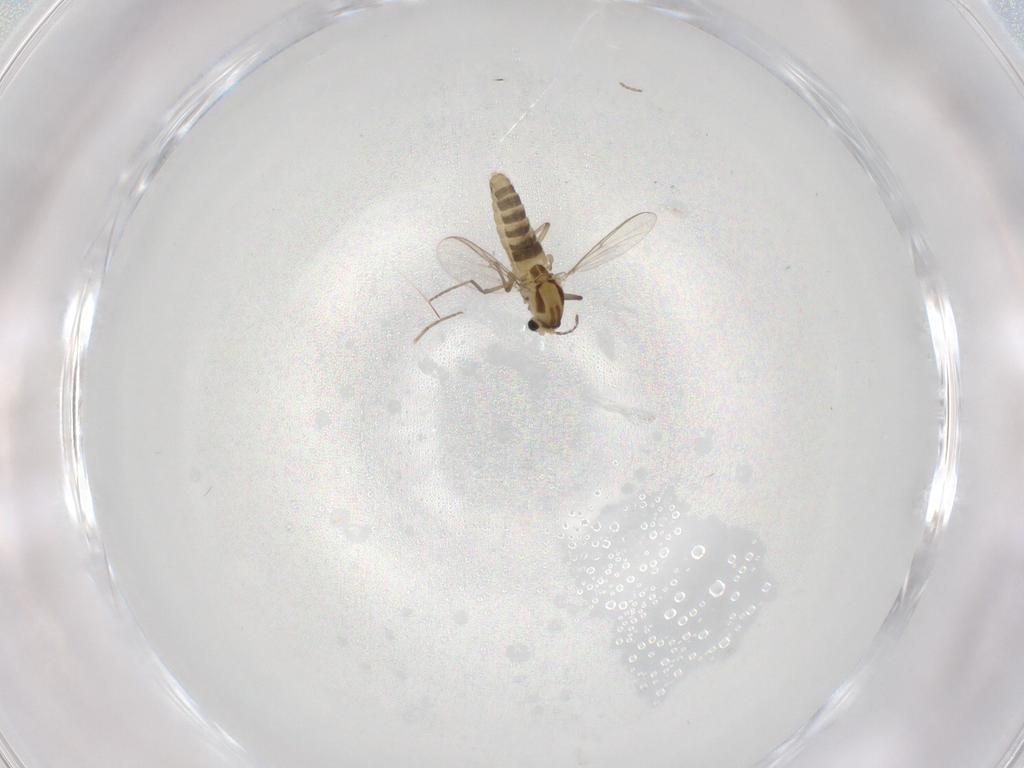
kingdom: Animalia
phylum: Arthropoda
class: Insecta
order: Diptera
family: Chironomidae
